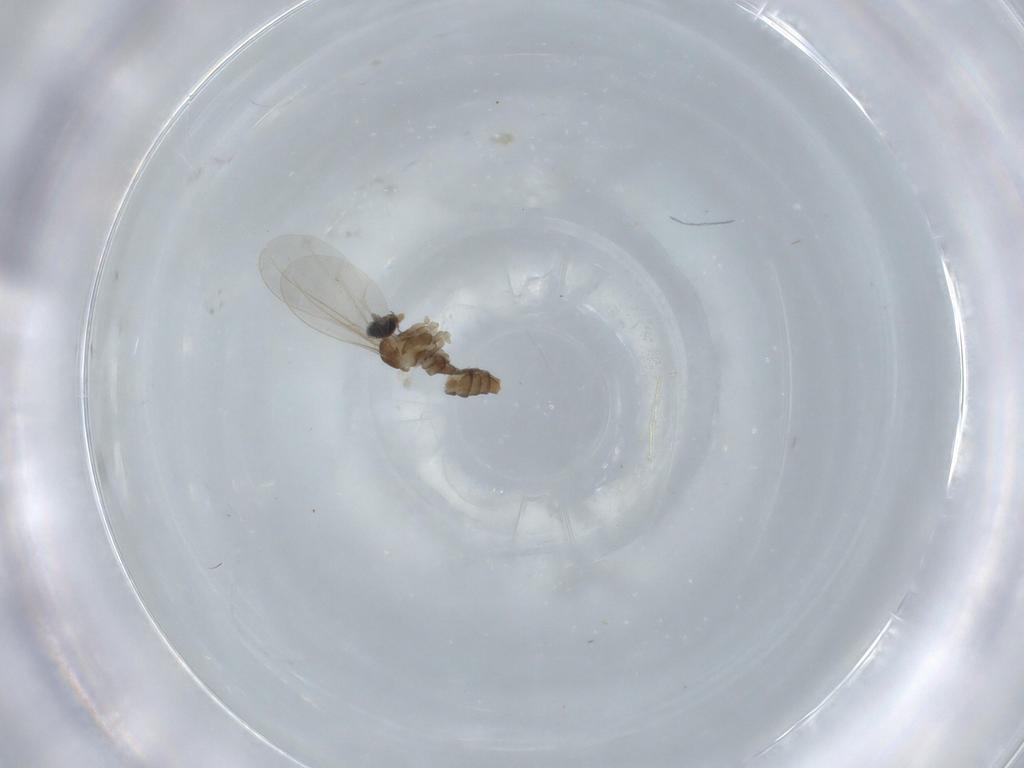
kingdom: Animalia
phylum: Arthropoda
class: Insecta
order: Diptera
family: Cecidomyiidae
